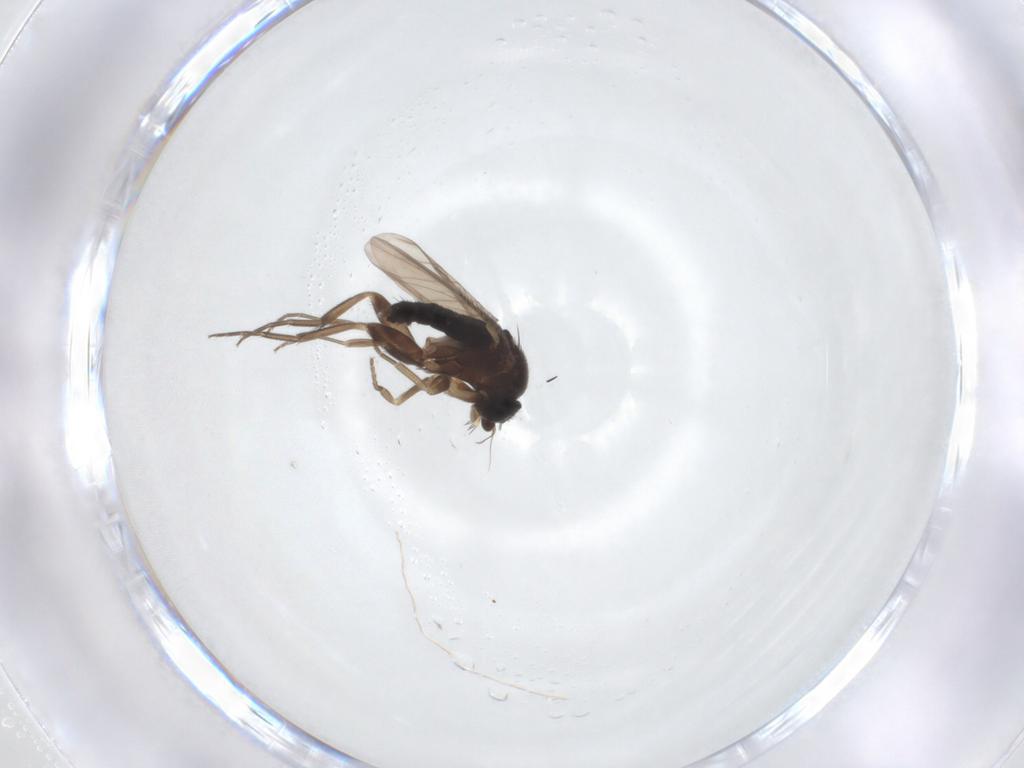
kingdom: Animalia
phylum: Arthropoda
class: Insecta
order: Diptera
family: Phoridae
